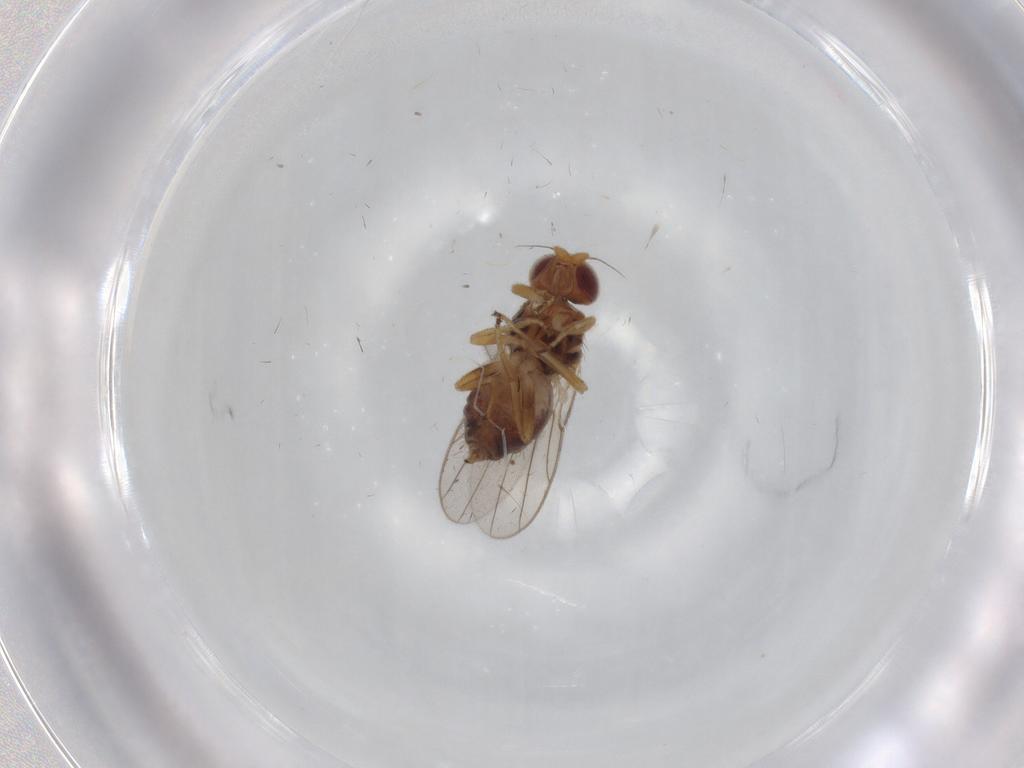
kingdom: Animalia
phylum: Arthropoda
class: Insecta
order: Diptera
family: Chloropidae
